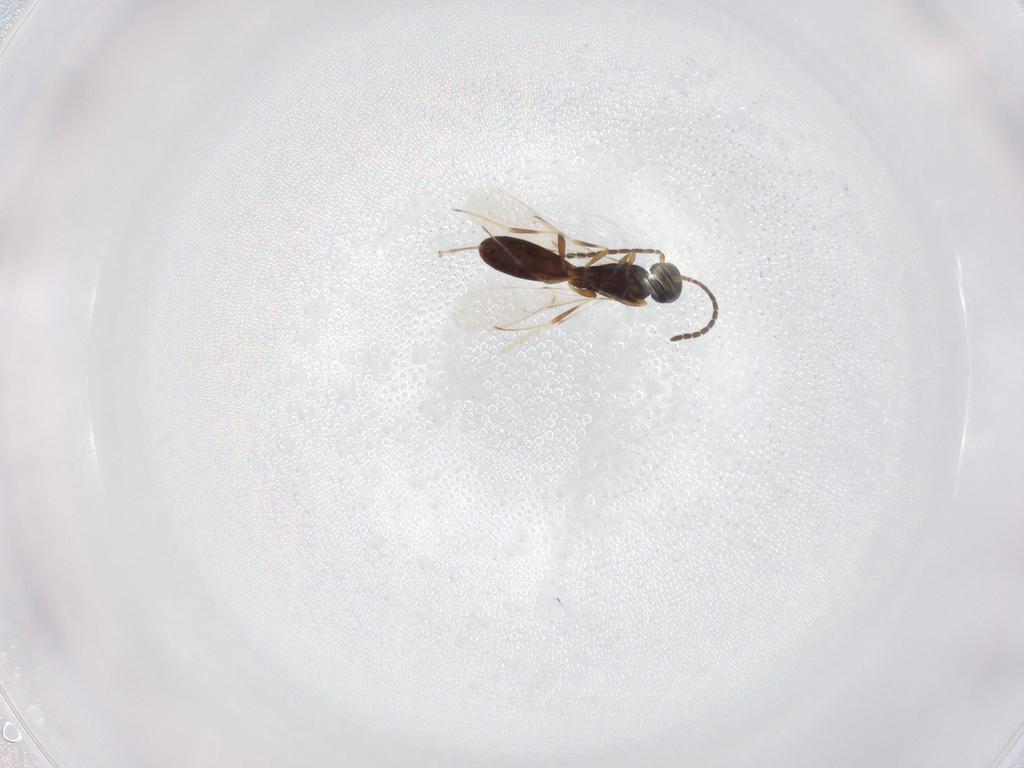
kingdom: Animalia
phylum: Arthropoda
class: Insecta
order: Hymenoptera
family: Scelionidae
